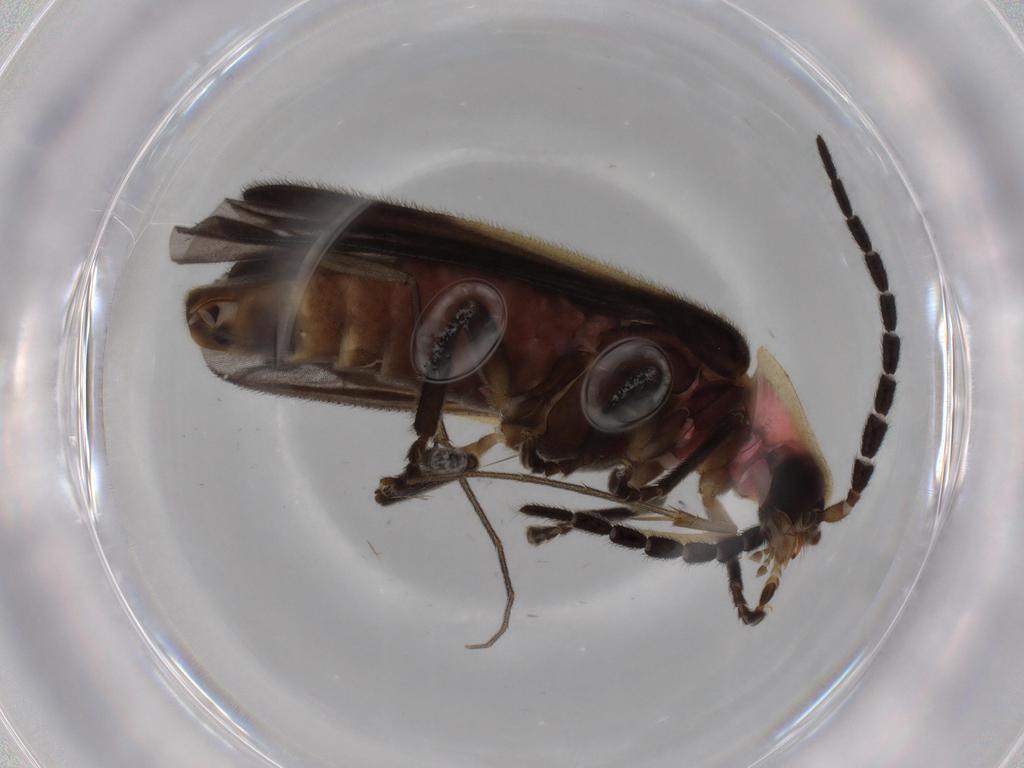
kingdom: Animalia
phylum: Arthropoda
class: Insecta
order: Coleoptera
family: Lampyridae
